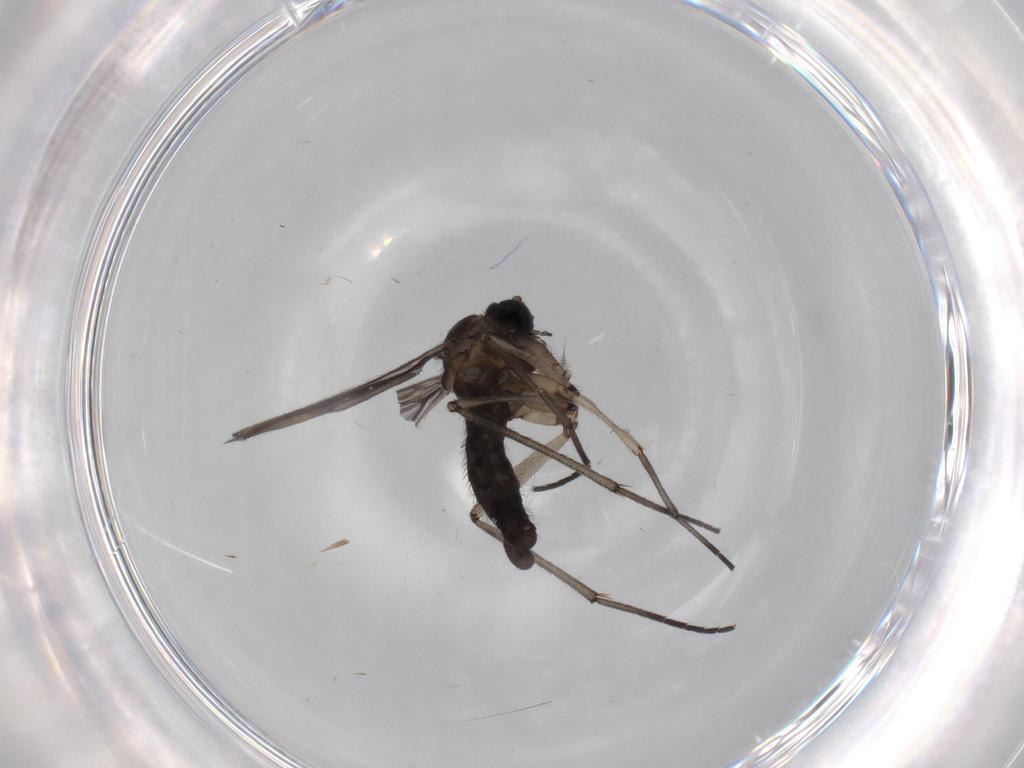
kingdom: Animalia
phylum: Arthropoda
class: Insecta
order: Diptera
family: Sciaridae
